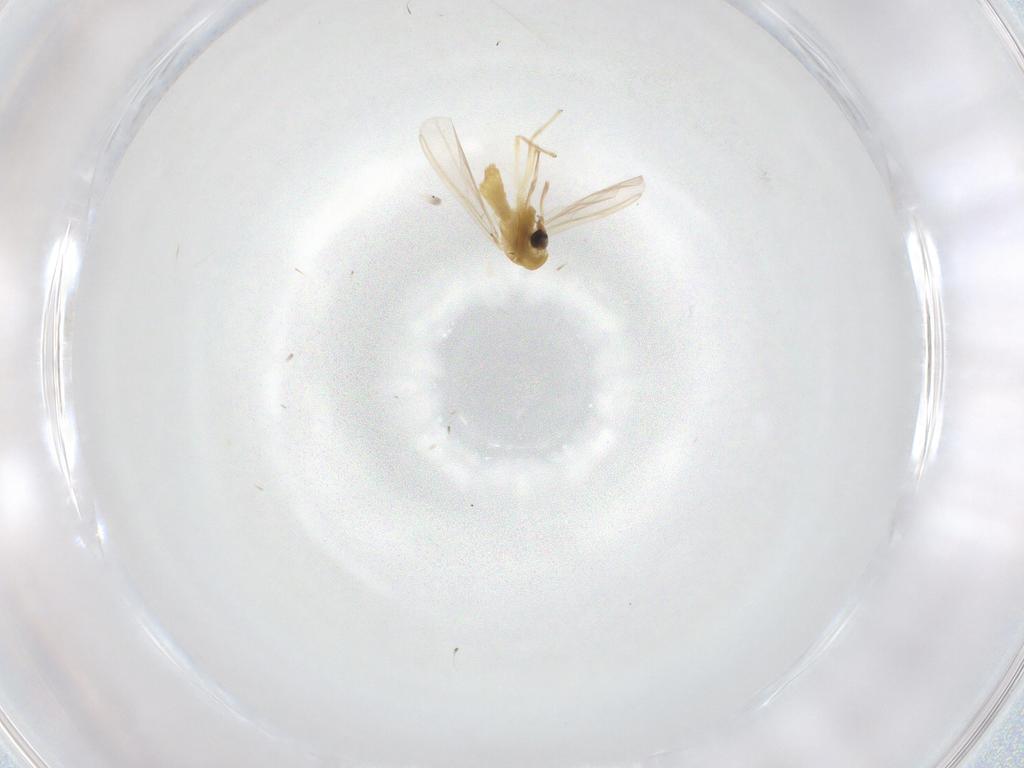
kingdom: Animalia
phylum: Arthropoda
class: Insecta
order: Diptera
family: Chironomidae
